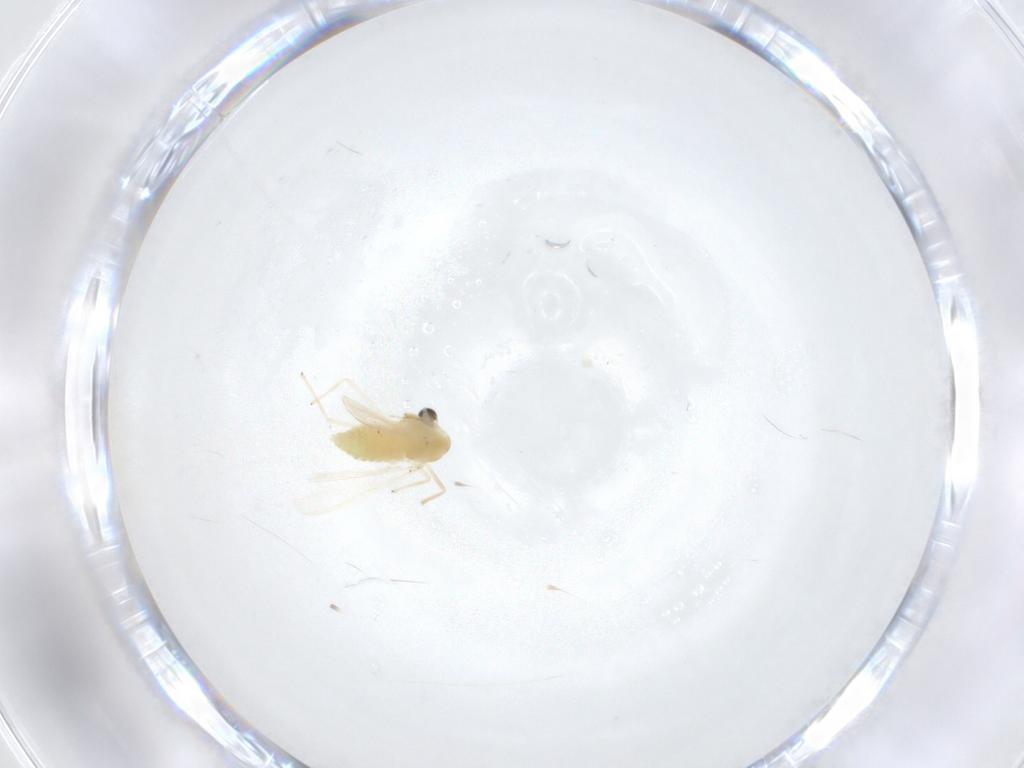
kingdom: Animalia
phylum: Arthropoda
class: Insecta
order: Diptera
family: Chironomidae
